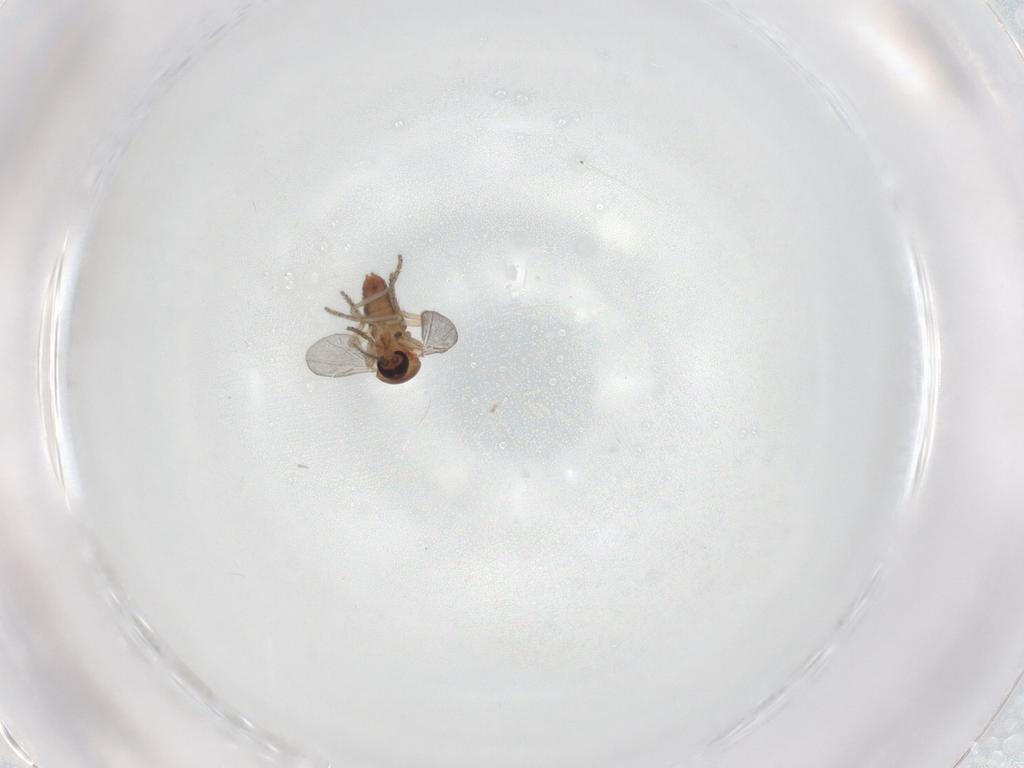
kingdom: Animalia
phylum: Arthropoda
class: Insecta
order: Diptera
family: Ceratopogonidae
